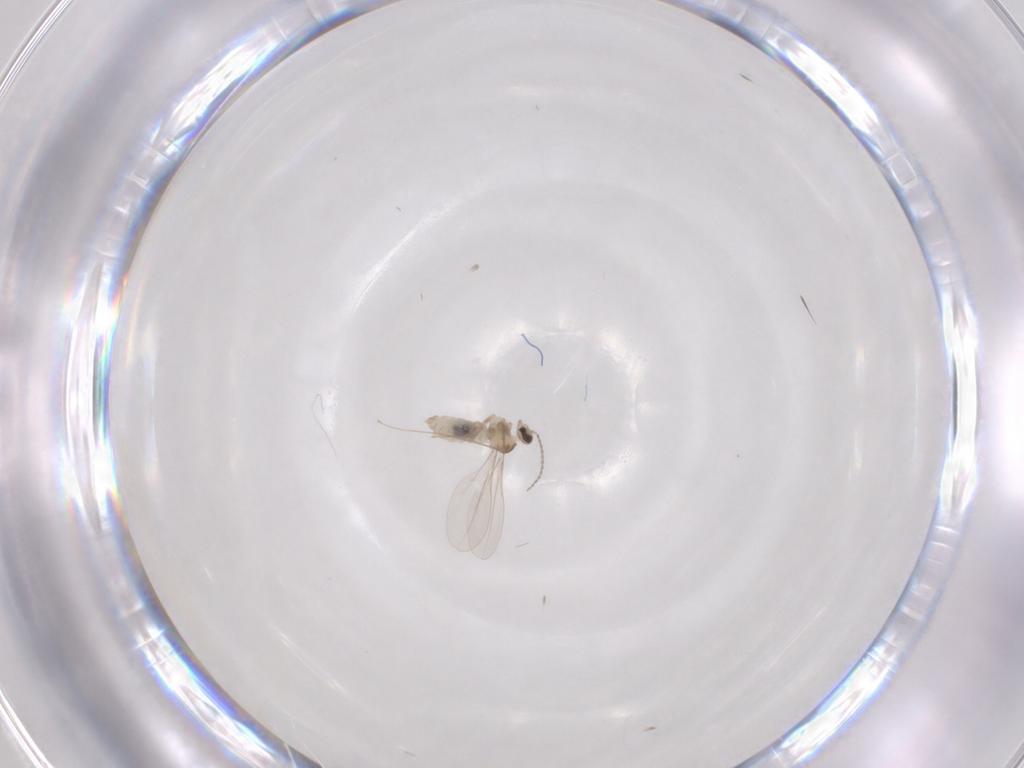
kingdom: Animalia
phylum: Arthropoda
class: Insecta
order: Diptera
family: Cecidomyiidae
